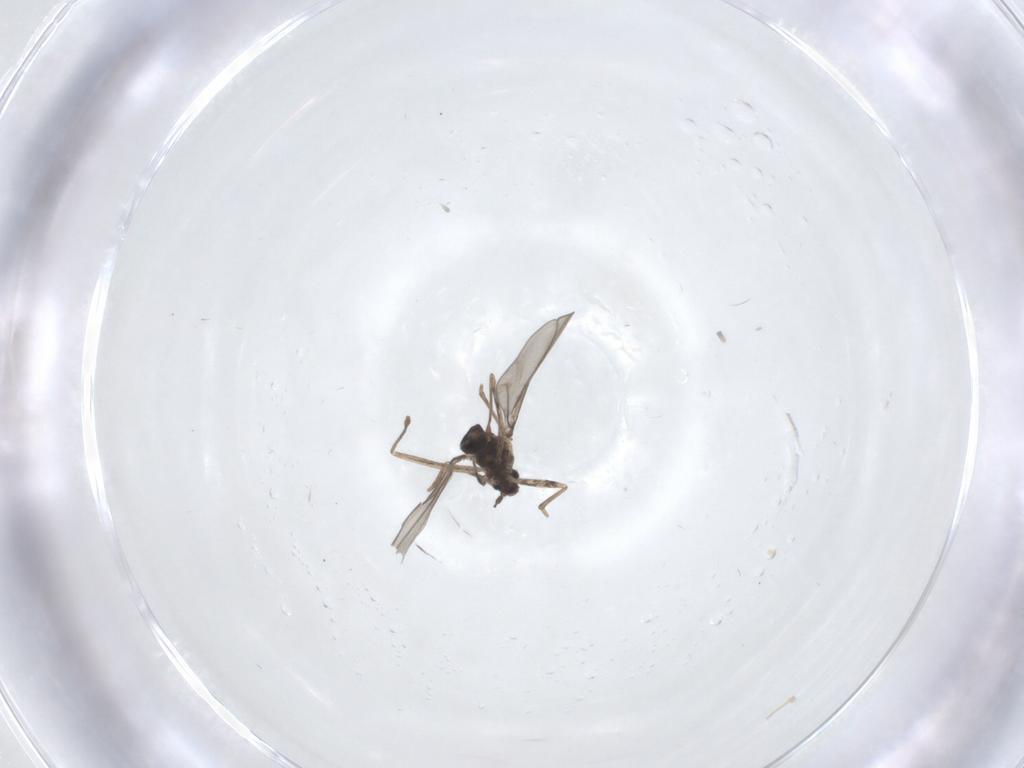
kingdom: Animalia
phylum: Arthropoda
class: Insecta
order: Diptera
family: Cecidomyiidae
